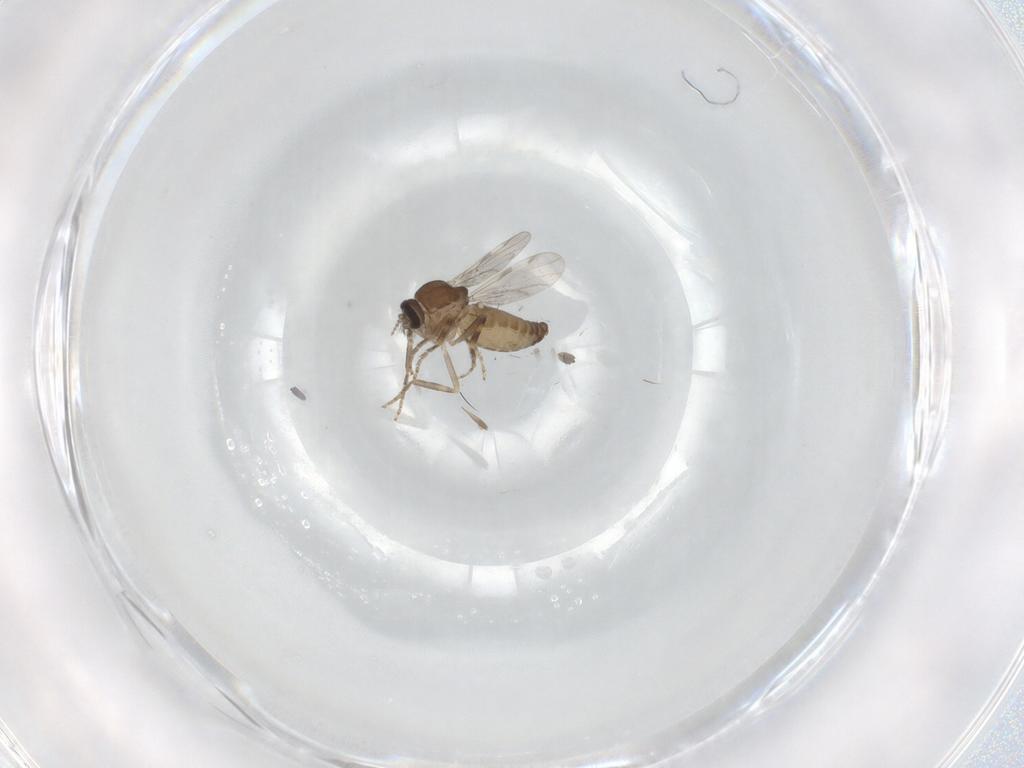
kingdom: Animalia
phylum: Arthropoda
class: Insecta
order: Diptera
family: Ceratopogonidae
